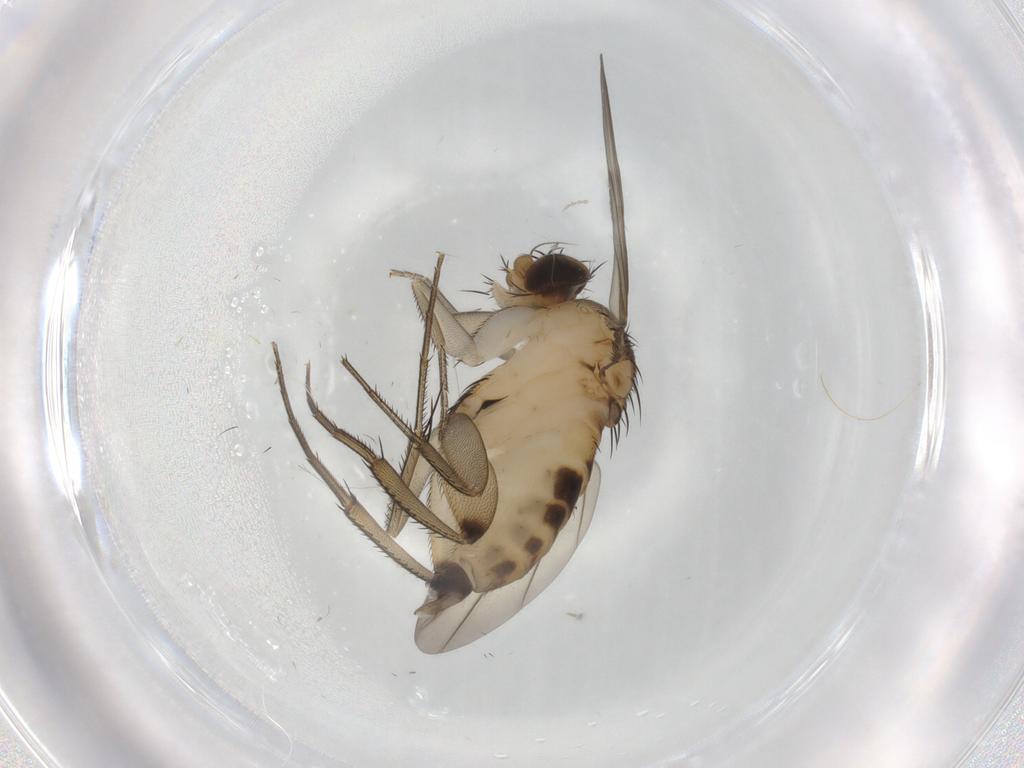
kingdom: Animalia
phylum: Arthropoda
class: Insecta
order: Diptera
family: Cecidomyiidae
